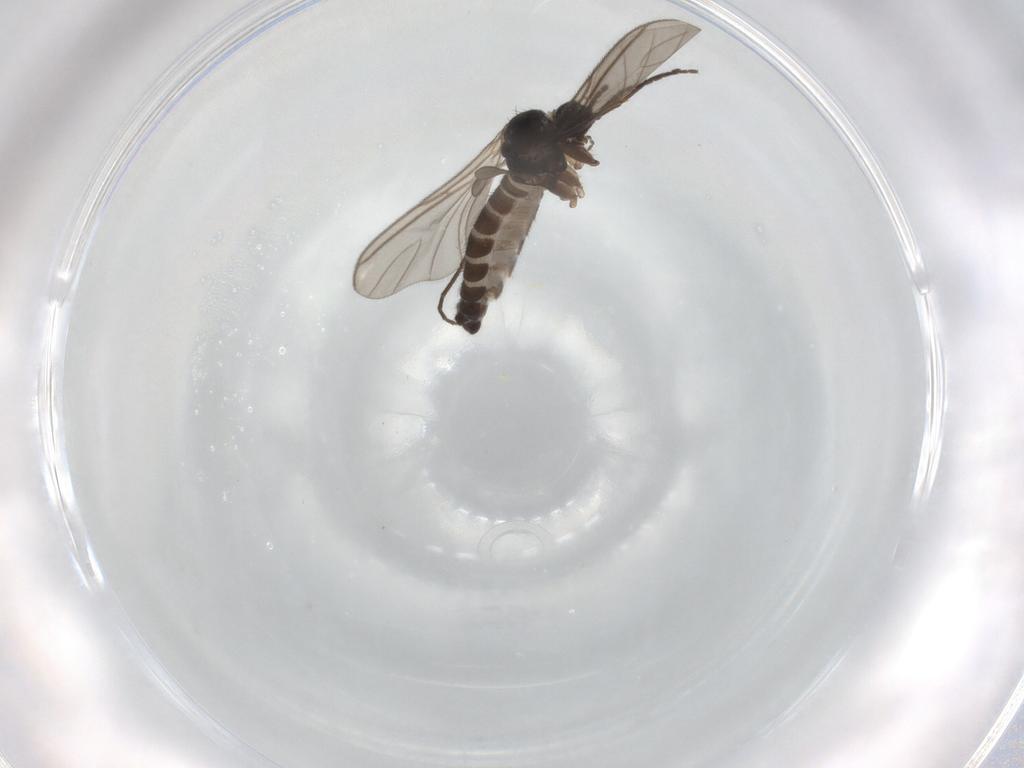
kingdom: Animalia
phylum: Arthropoda
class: Insecta
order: Diptera
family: Sciaridae
